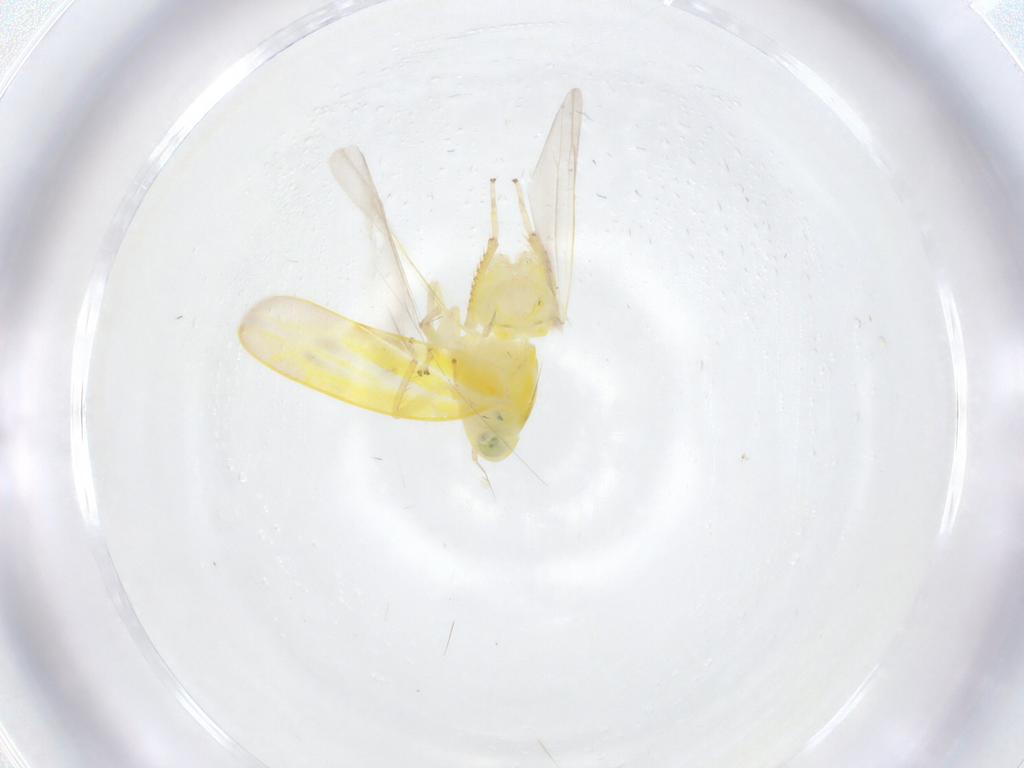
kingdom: Animalia
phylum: Arthropoda
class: Insecta
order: Hemiptera
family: Cicadellidae
